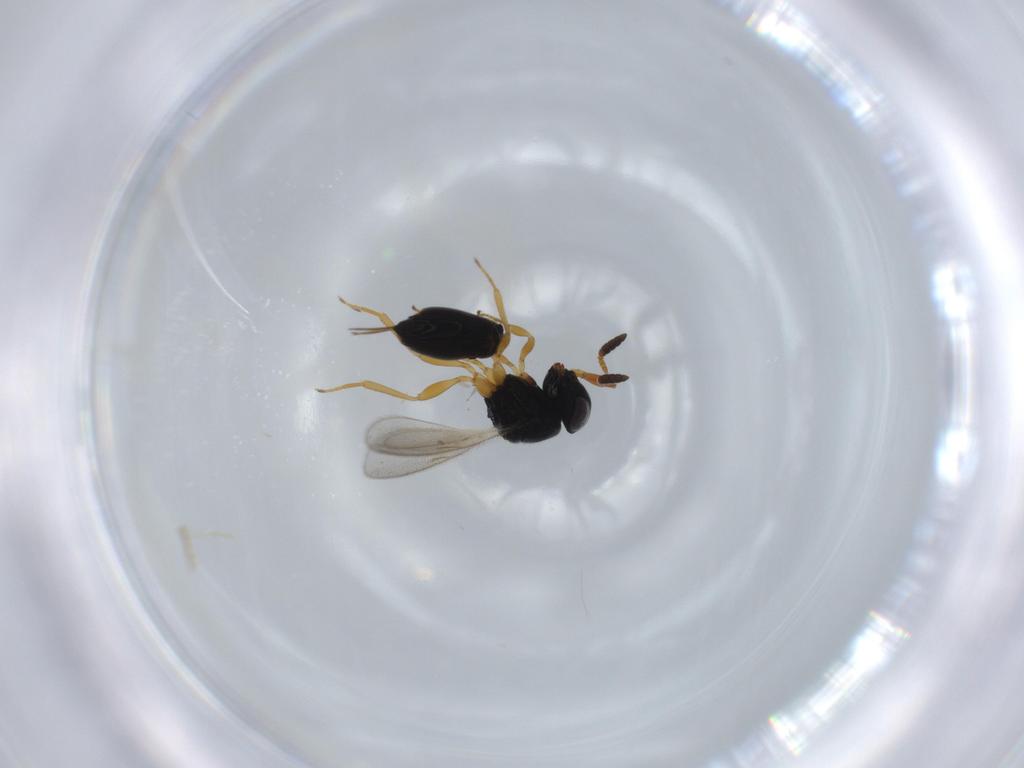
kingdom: Animalia
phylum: Arthropoda
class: Insecta
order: Hymenoptera
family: Scelionidae
